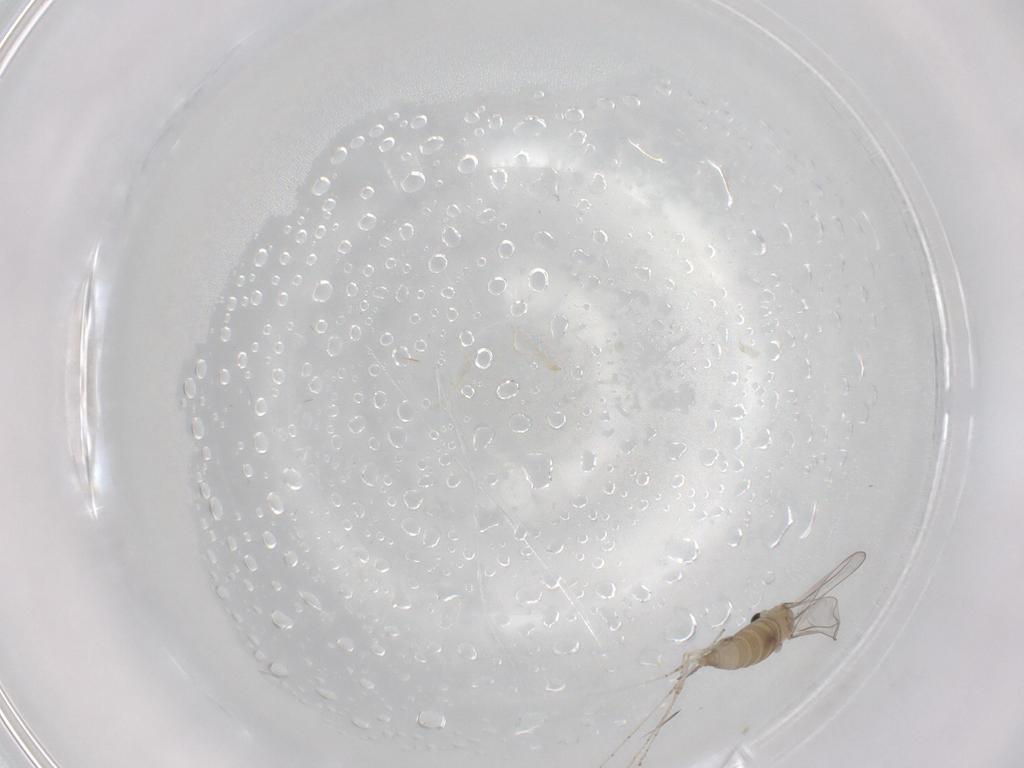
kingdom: Animalia
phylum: Arthropoda
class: Insecta
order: Diptera
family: Cecidomyiidae
